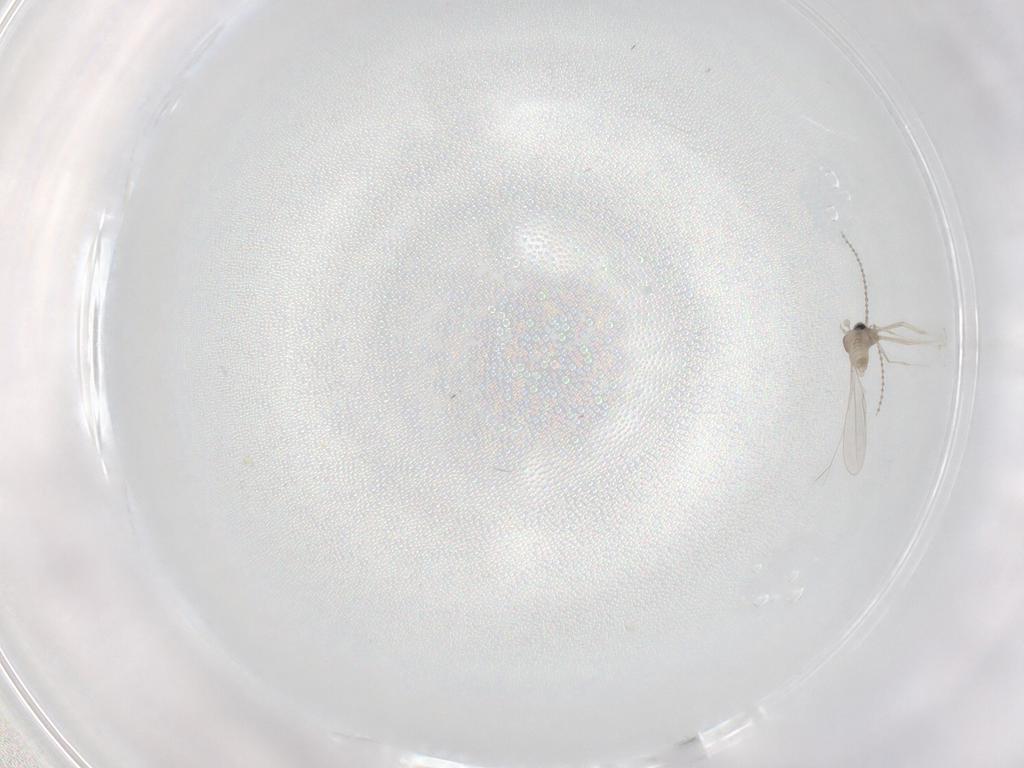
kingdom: Animalia
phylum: Arthropoda
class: Insecta
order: Diptera
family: Cecidomyiidae
